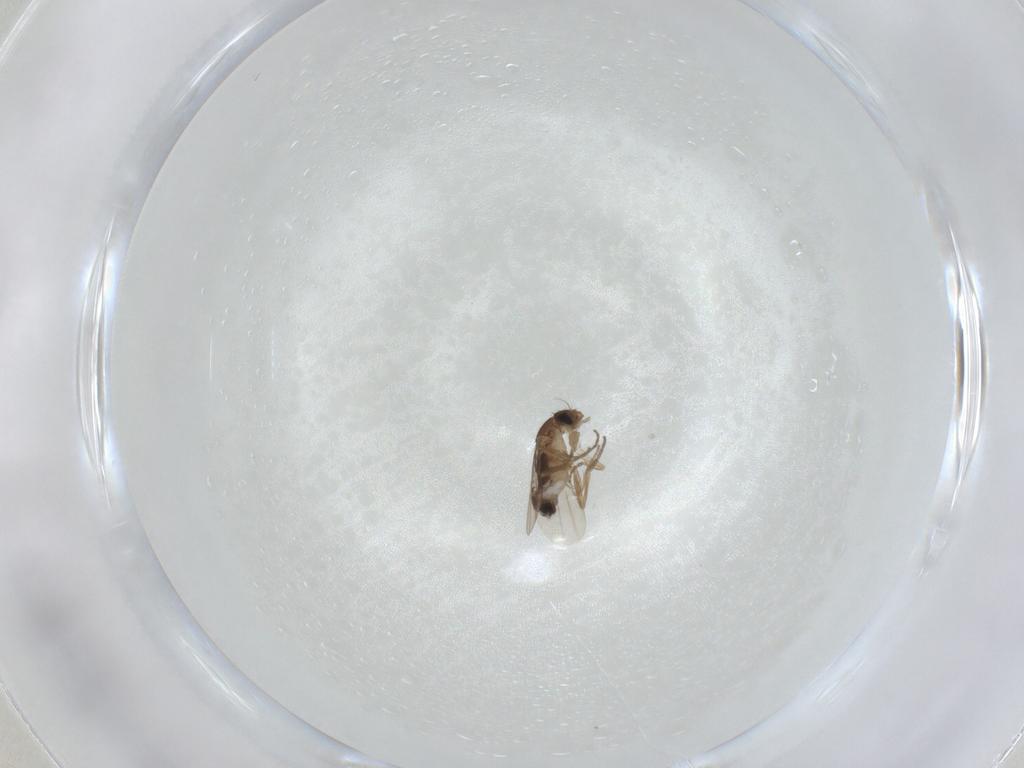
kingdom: Animalia
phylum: Arthropoda
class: Insecta
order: Diptera
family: Phoridae
